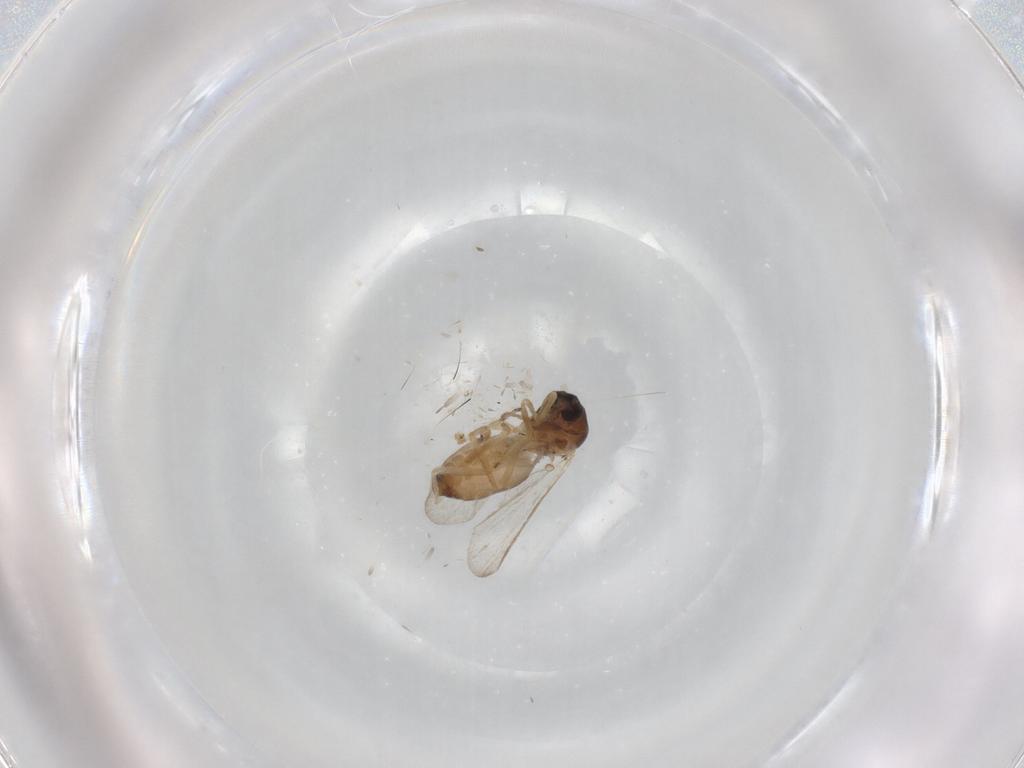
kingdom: Animalia
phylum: Arthropoda
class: Insecta
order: Diptera
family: Ceratopogonidae
